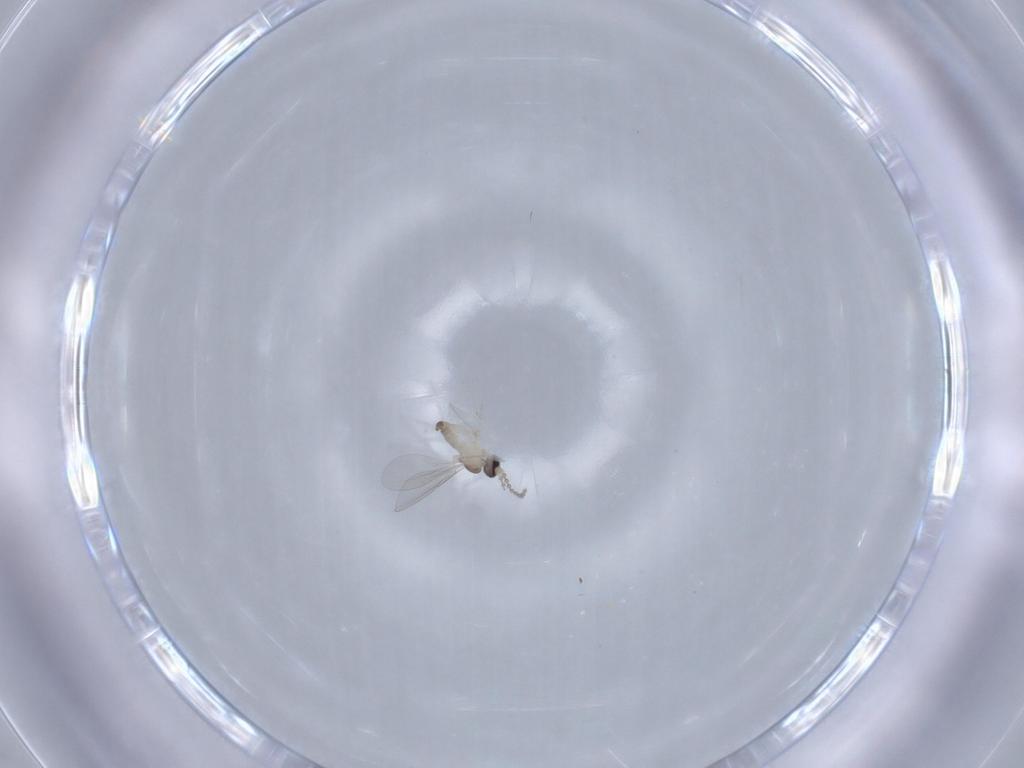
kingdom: Animalia
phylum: Arthropoda
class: Insecta
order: Diptera
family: Cecidomyiidae
